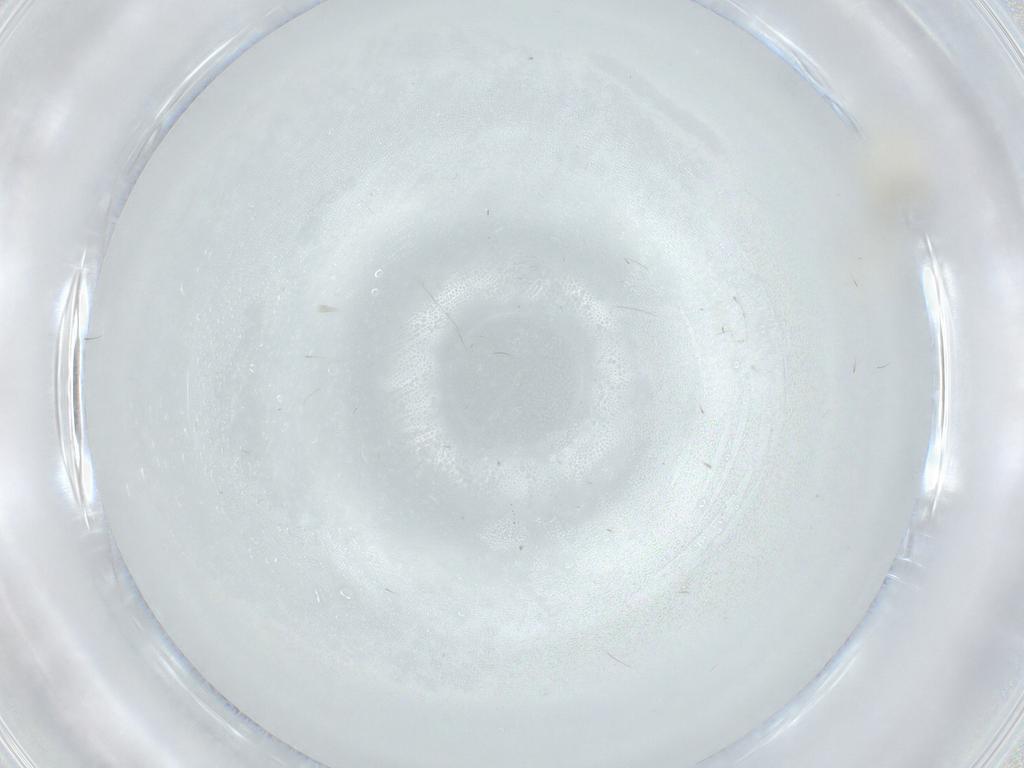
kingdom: Animalia
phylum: Arthropoda
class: Insecta
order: Diptera
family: Cecidomyiidae
